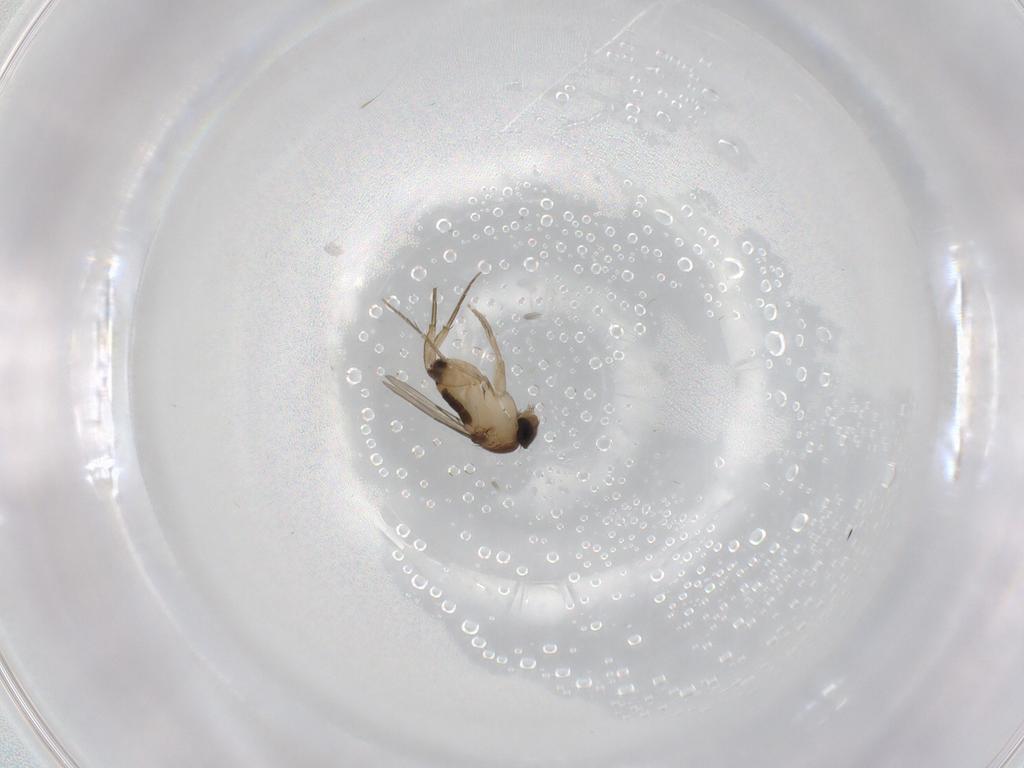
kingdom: Animalia
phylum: Arthropoda
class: Insecta
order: Diptera
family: Phoridae
